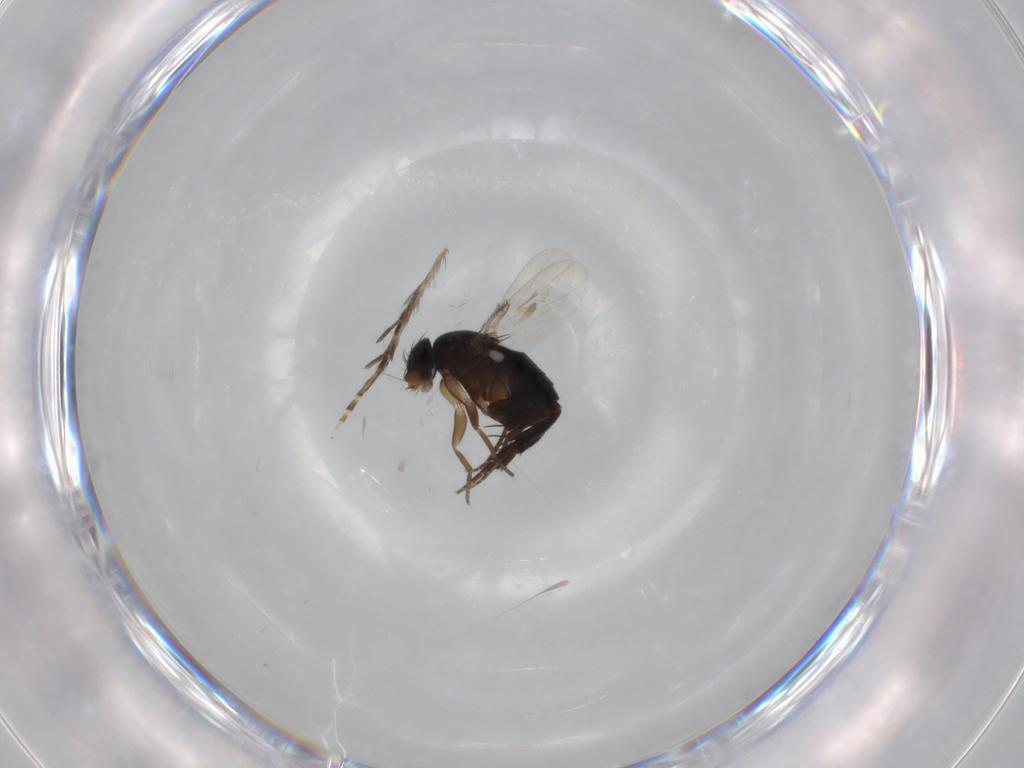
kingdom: Animalia
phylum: Arthropoda
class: Insecta
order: Diptera
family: Phoridae
